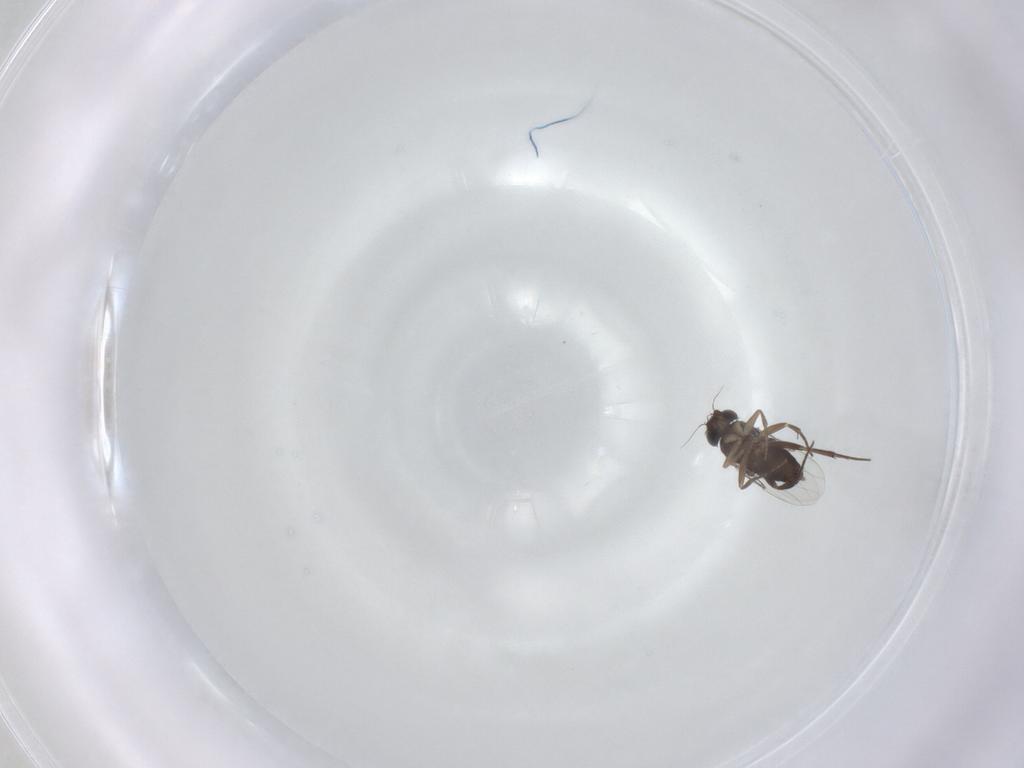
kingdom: Animalia
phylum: Arthropoda
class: Insecta
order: Diptera
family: Phoridae
